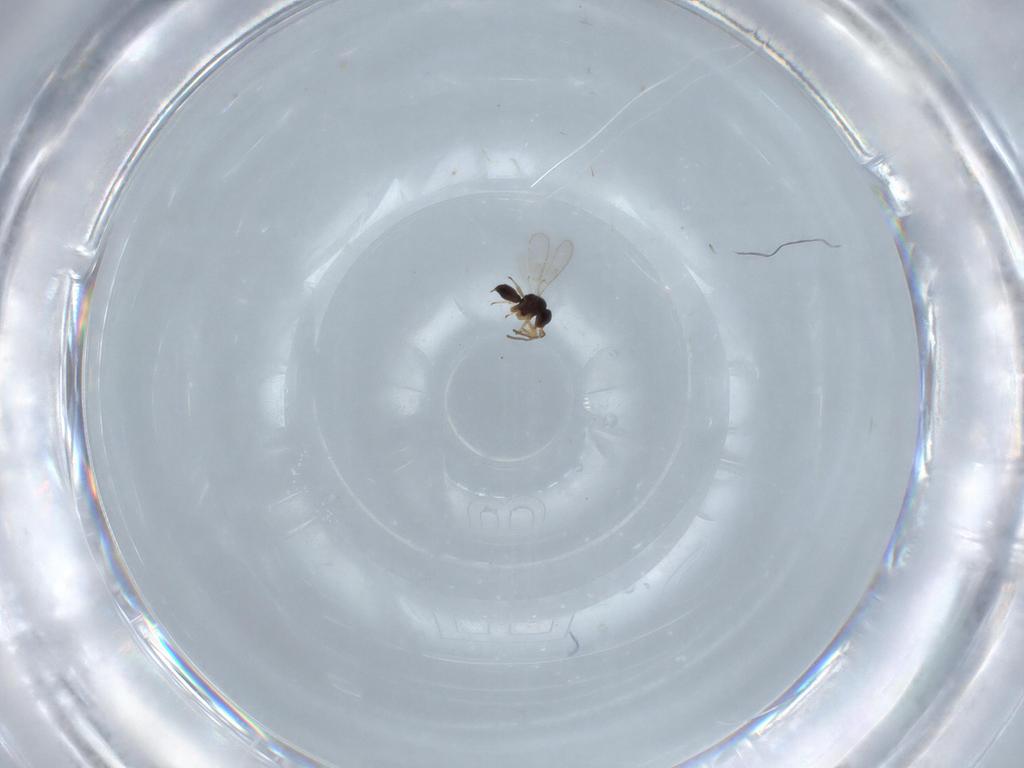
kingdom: Animalia
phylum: Arthropoda
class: Insecta
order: Hymenoptera
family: Scelionidae
